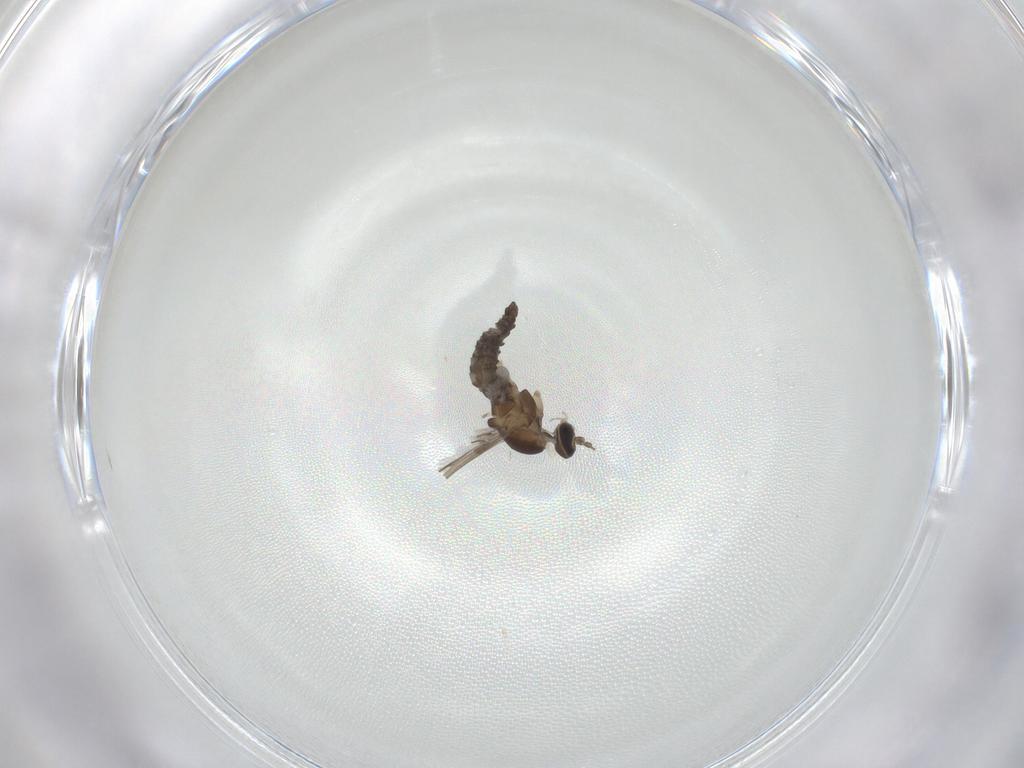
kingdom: Animalia
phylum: Arthropoda
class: Insecta
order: Diptera
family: Cecidomyiidae
